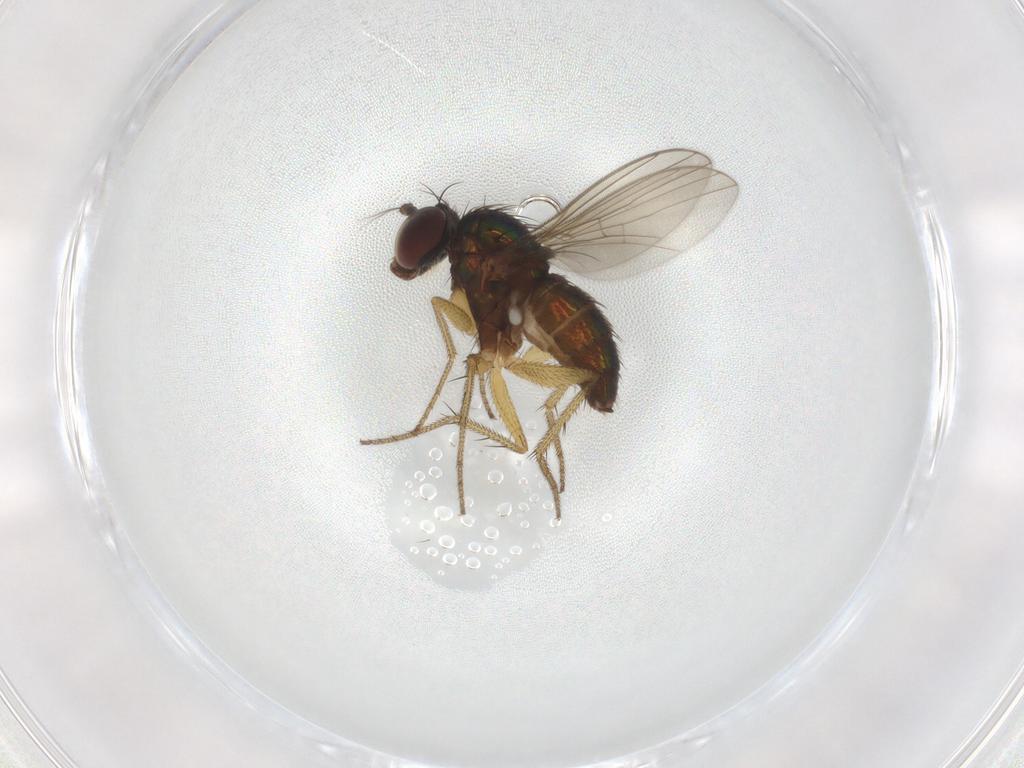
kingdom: Animalia
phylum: Arthropoda
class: Insecta
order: Diptera
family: Dolichopodidae
